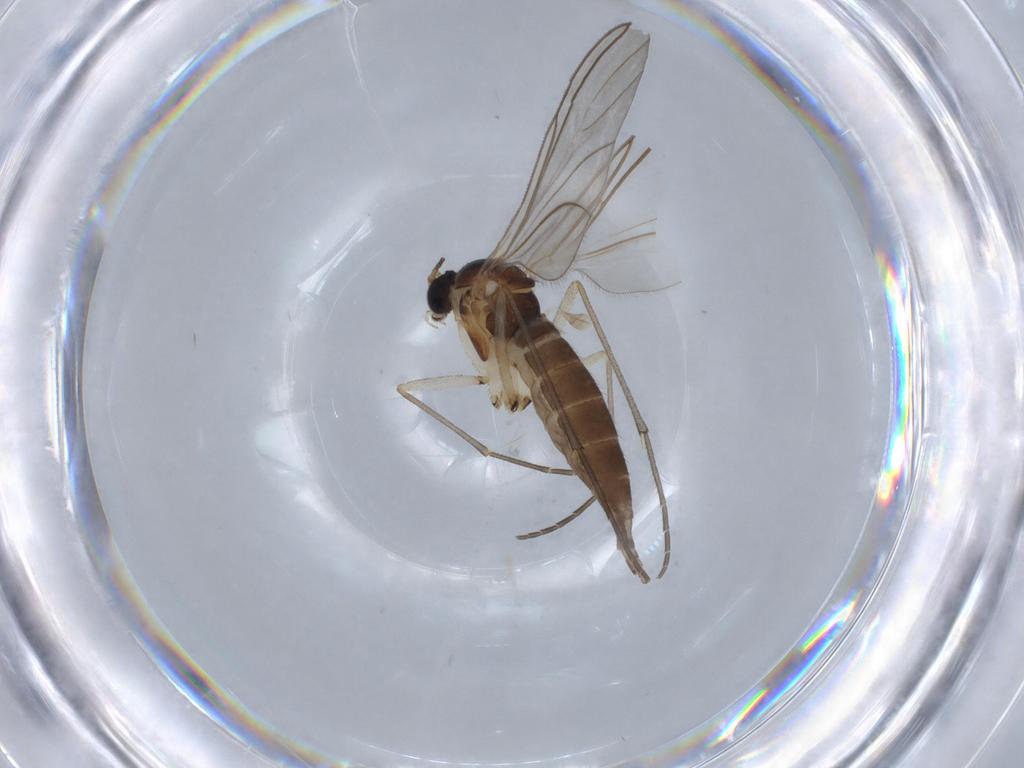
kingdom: Animalia
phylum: Arthropoda
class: Insecta
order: Diptera
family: Sciaridae
